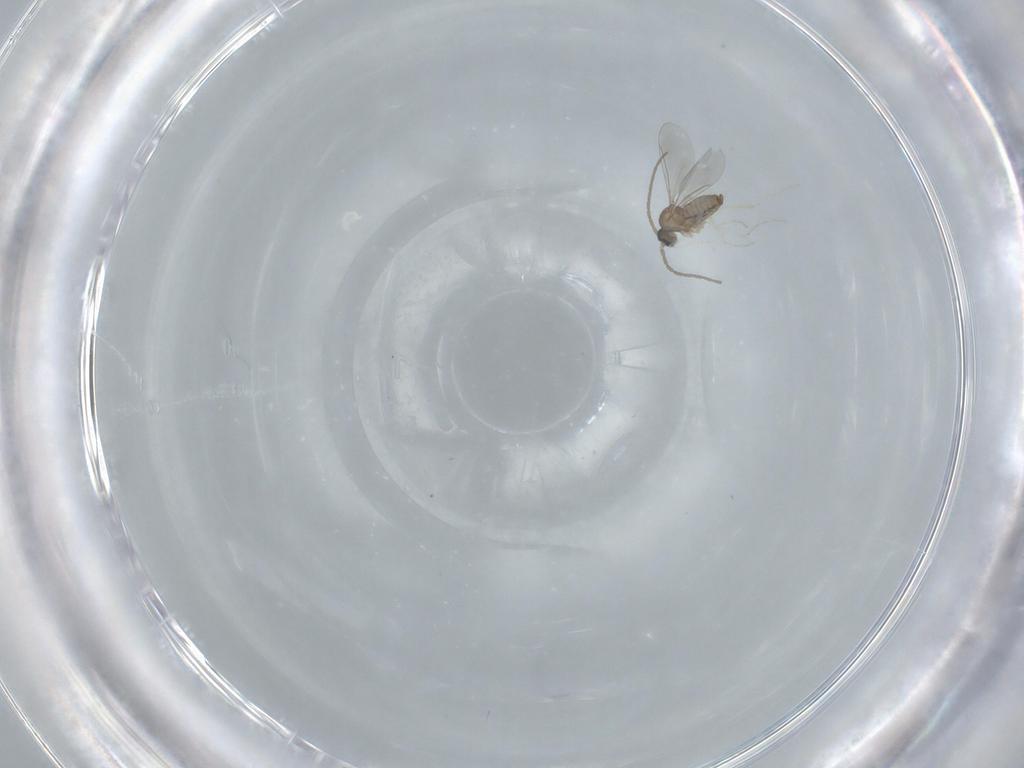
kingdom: Animalia
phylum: Arthropoda
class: Insecta
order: Diptera
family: Cecidomyiidae
